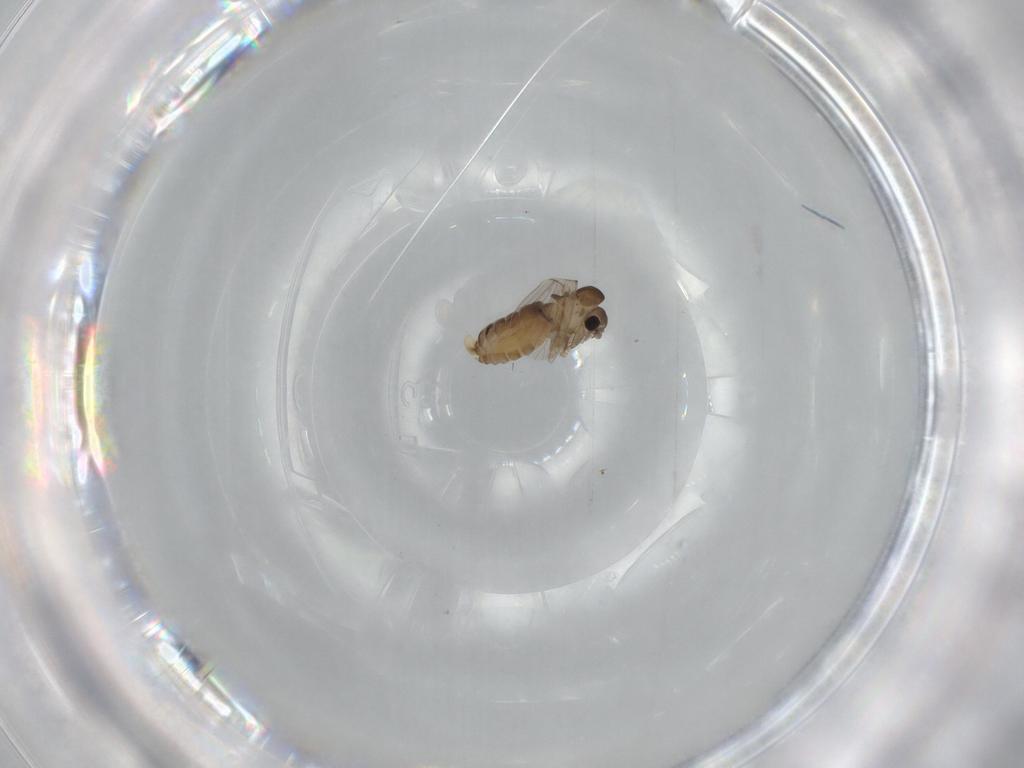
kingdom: Animalia
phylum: Arthropoda
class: Insecta
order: Diptera
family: Psychodidae
